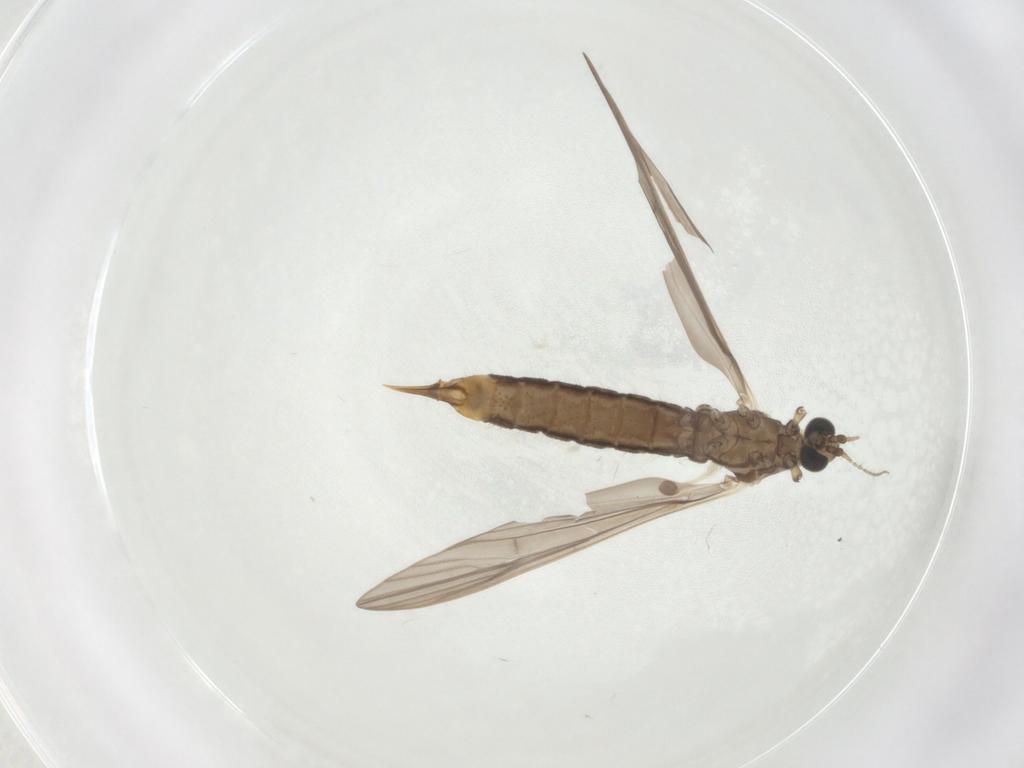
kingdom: Animalia
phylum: Arthropoda
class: Insecta
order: Diptera
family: Limoniidae
